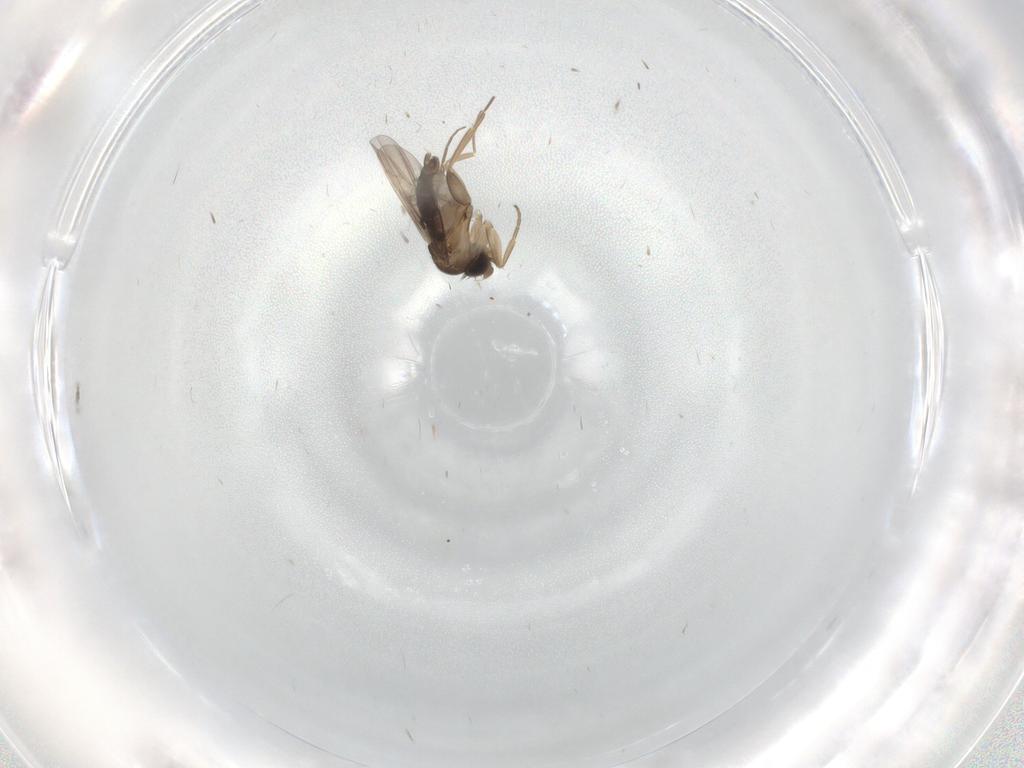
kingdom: Animalia
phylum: Arthropoda
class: Insecta
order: Diptera
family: Phoridae
